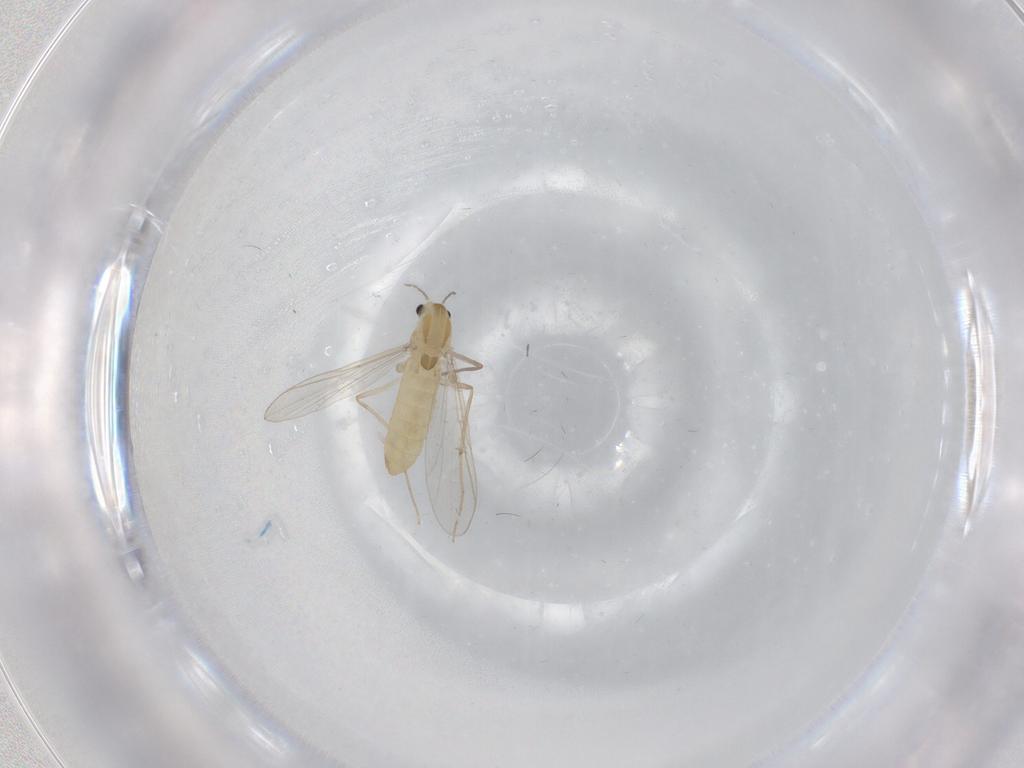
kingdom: Animalia
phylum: Arthropoda
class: Insecta
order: Diptera
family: Chironomidae
